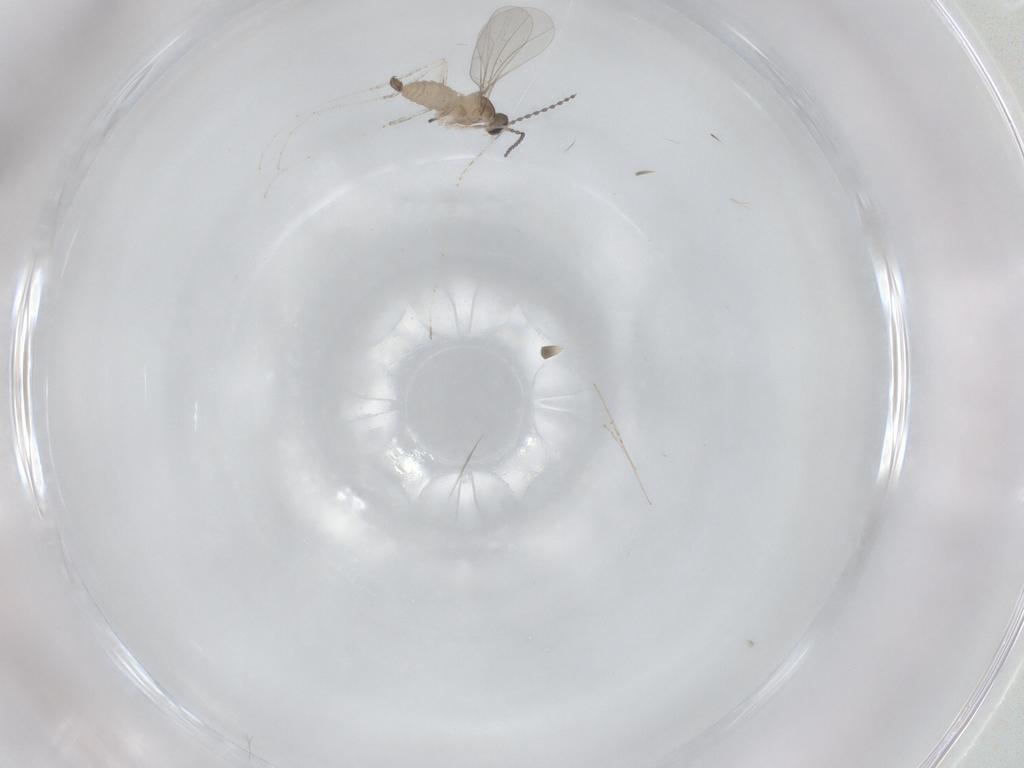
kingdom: Animalia
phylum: Arthropoda
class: Insecta
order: Diptera
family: Cecidomyiidae
